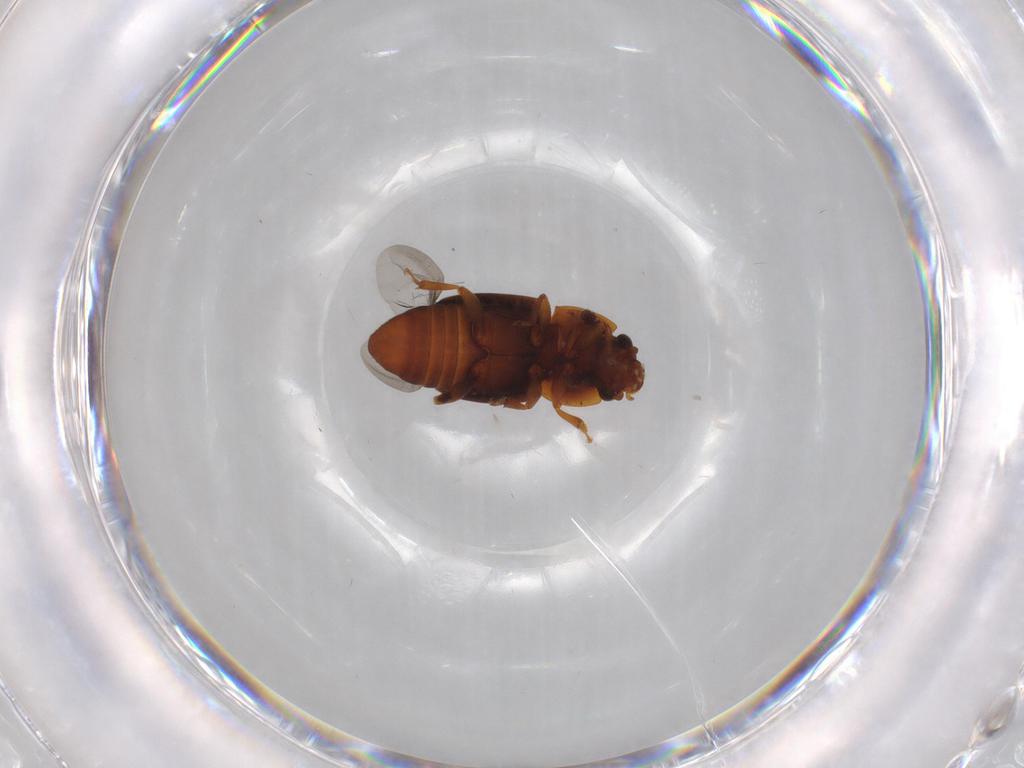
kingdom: Animalia
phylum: Arthropoda
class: Insecta
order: Coleoptera
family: Nitidulidae
